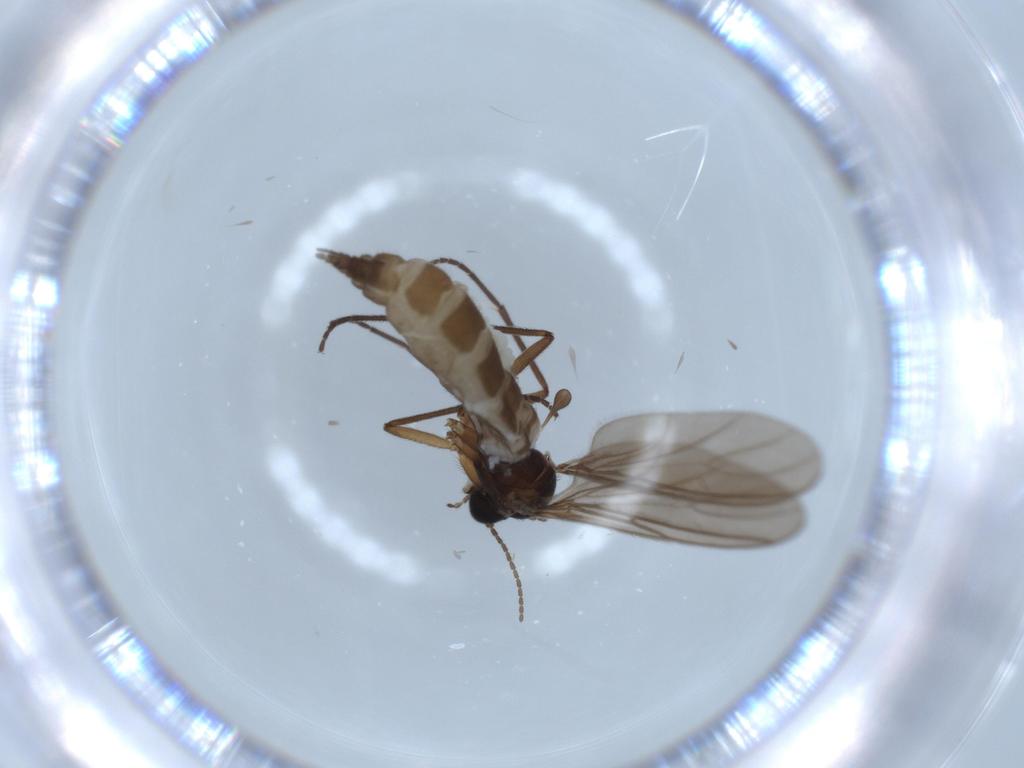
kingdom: Animalia
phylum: Arthropoda
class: Insecta
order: Diptera
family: Sciaridae
